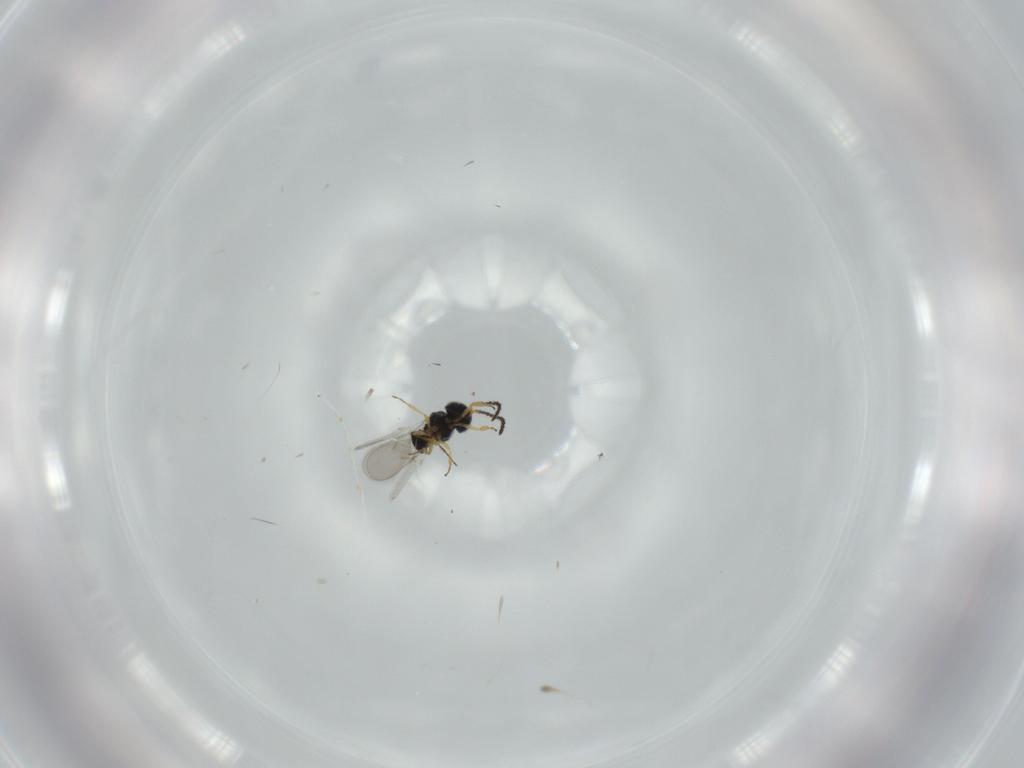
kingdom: Animalia
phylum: Arthropoda
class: Insecta
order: Hymenoptera
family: Scelionidae
